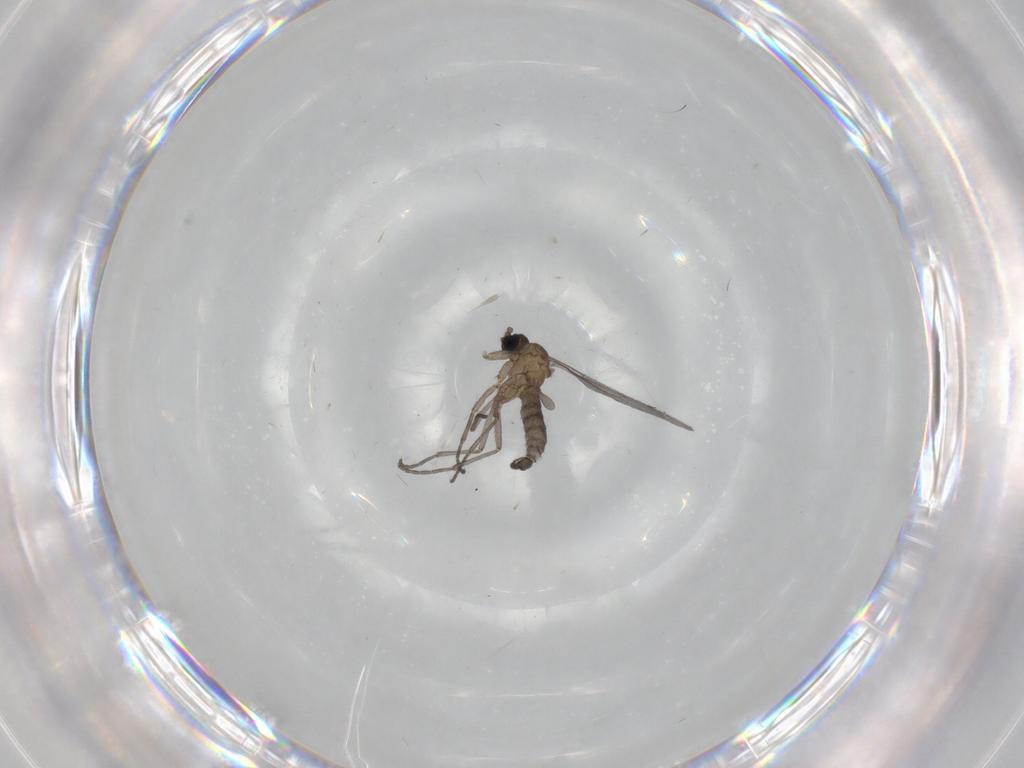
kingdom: Animalia
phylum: Arthropoda
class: Insecta
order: Diptera
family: Sciaridae
